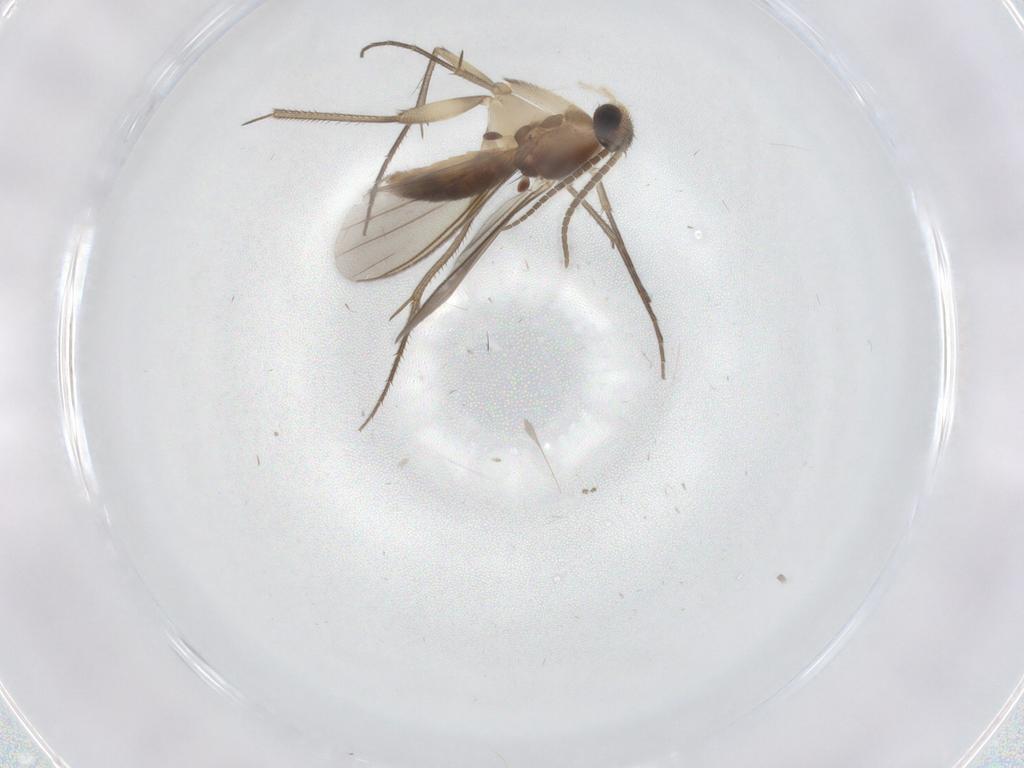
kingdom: Animalia
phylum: Arthropoda
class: Insecta
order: Diptera
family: Mycetophilidae
